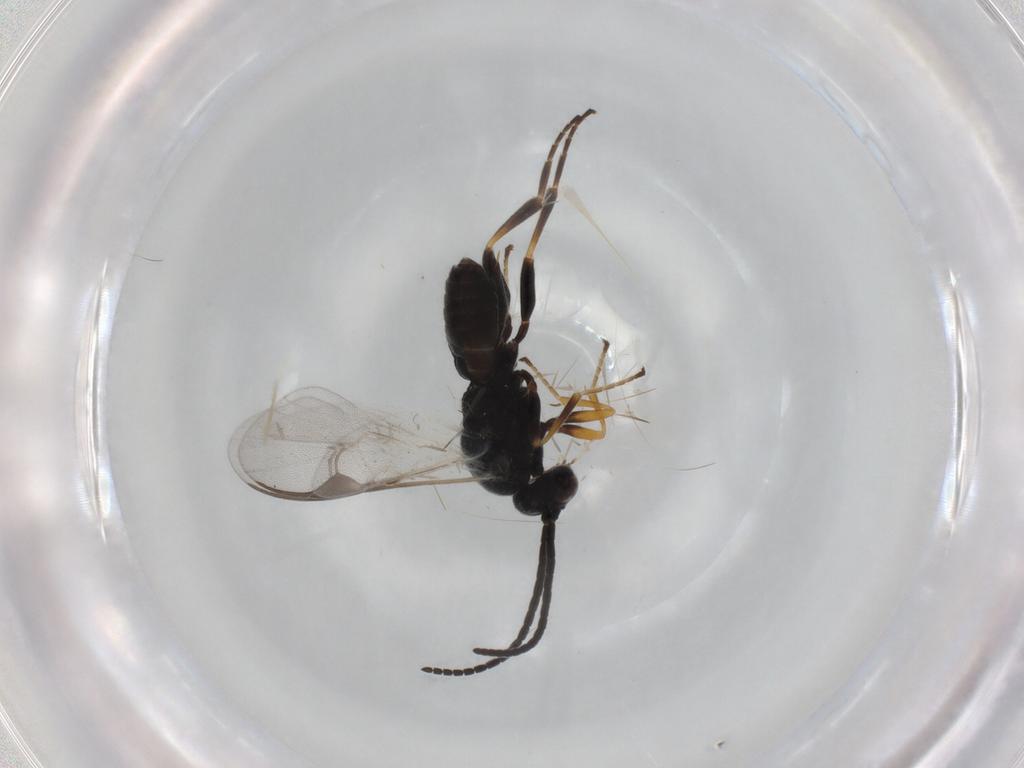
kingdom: Animalia
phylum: Arthropoda
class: Insecta
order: Hymenoptera
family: Braconidae
